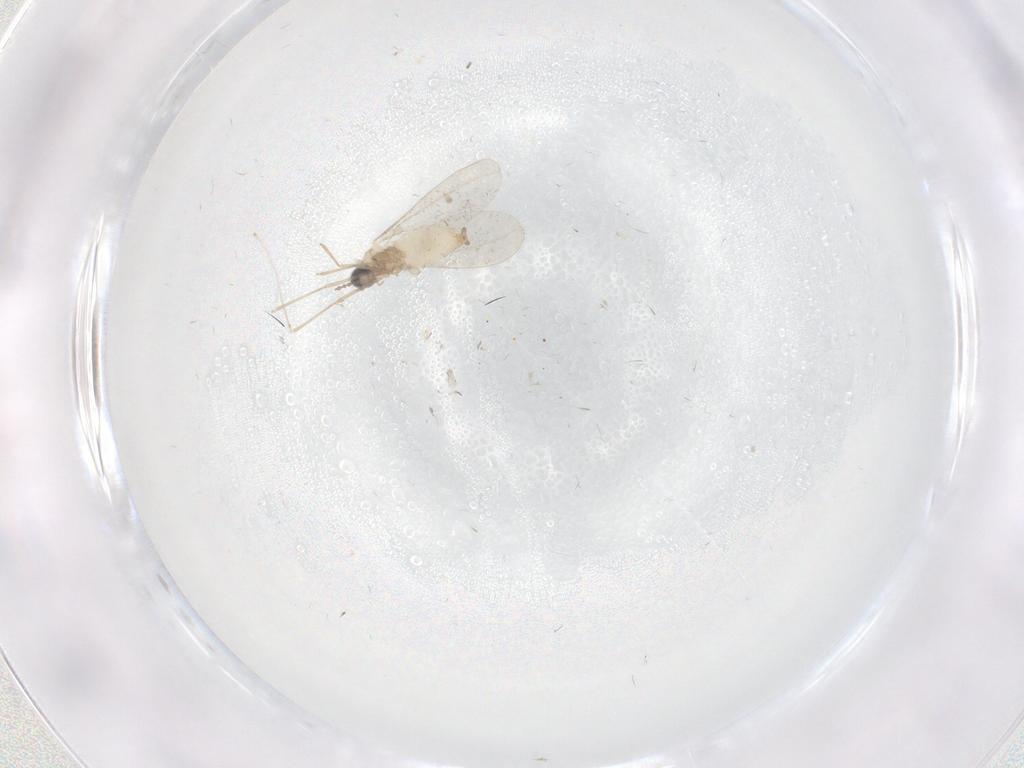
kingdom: Animalia
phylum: Arthropoda
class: Insecta
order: Diptera
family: Cecidomyiidae
